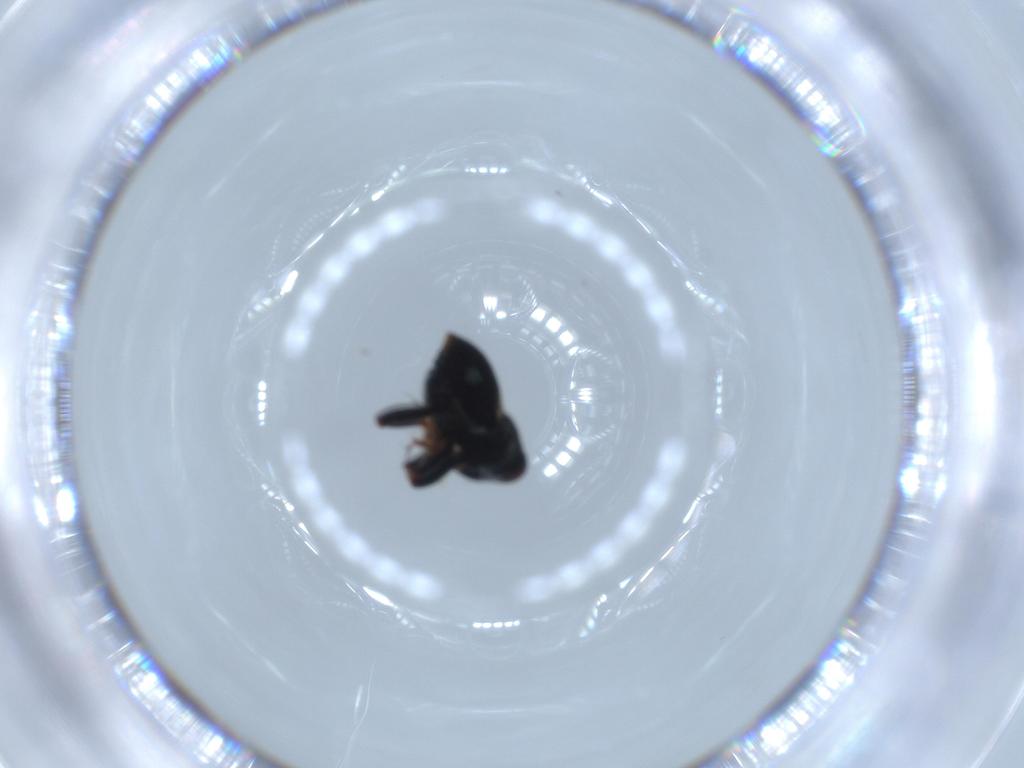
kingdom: Animalia
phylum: Arthropoda
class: Insecta
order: Coleoptera
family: Curculionidae
